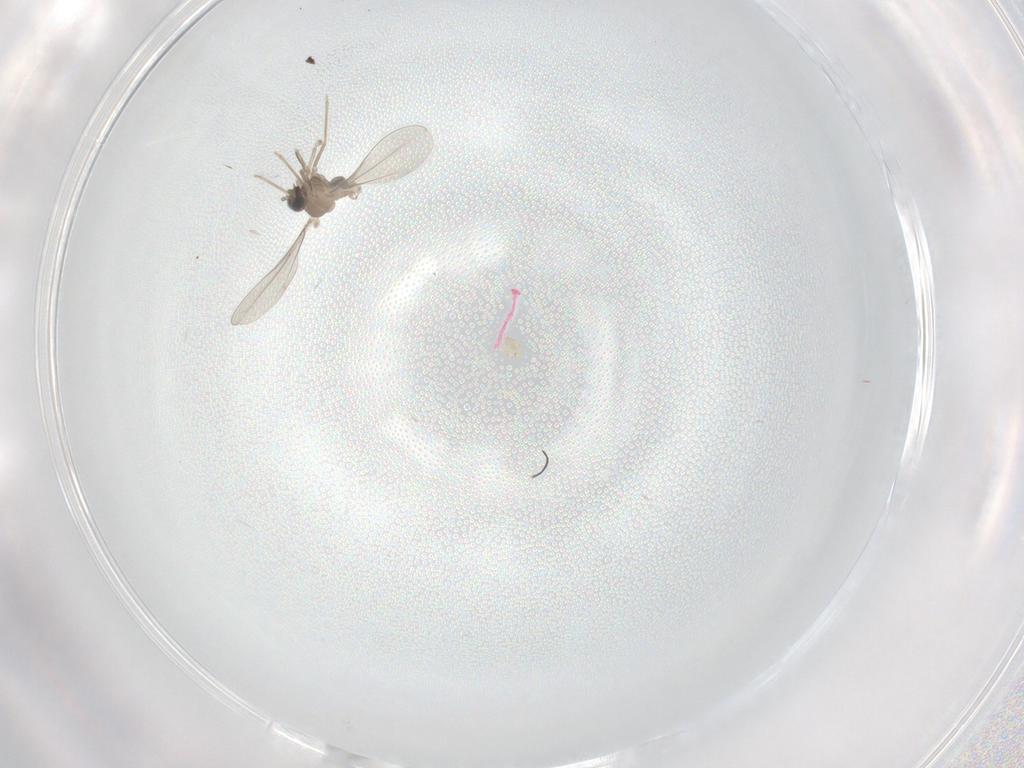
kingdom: Animalia
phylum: Arthropoda
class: Insecta
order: Diptera
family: Cecidomyiidae
